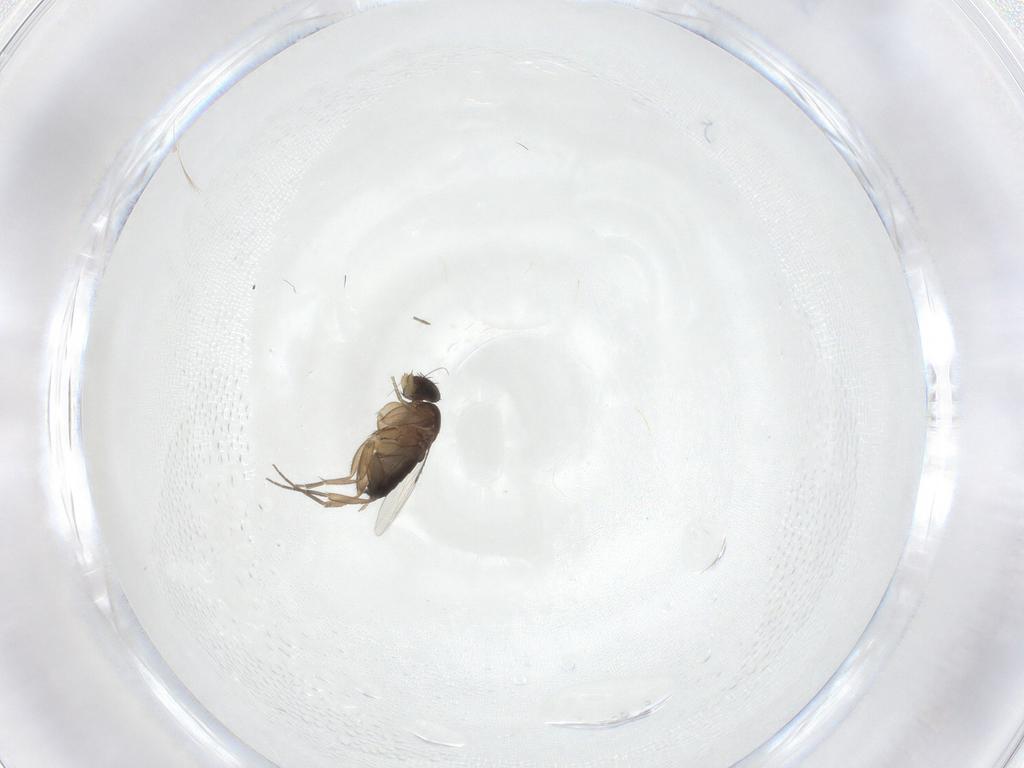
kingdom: Animalia
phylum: Arthropoda
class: Insecta
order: Diptera
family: Phoridae
